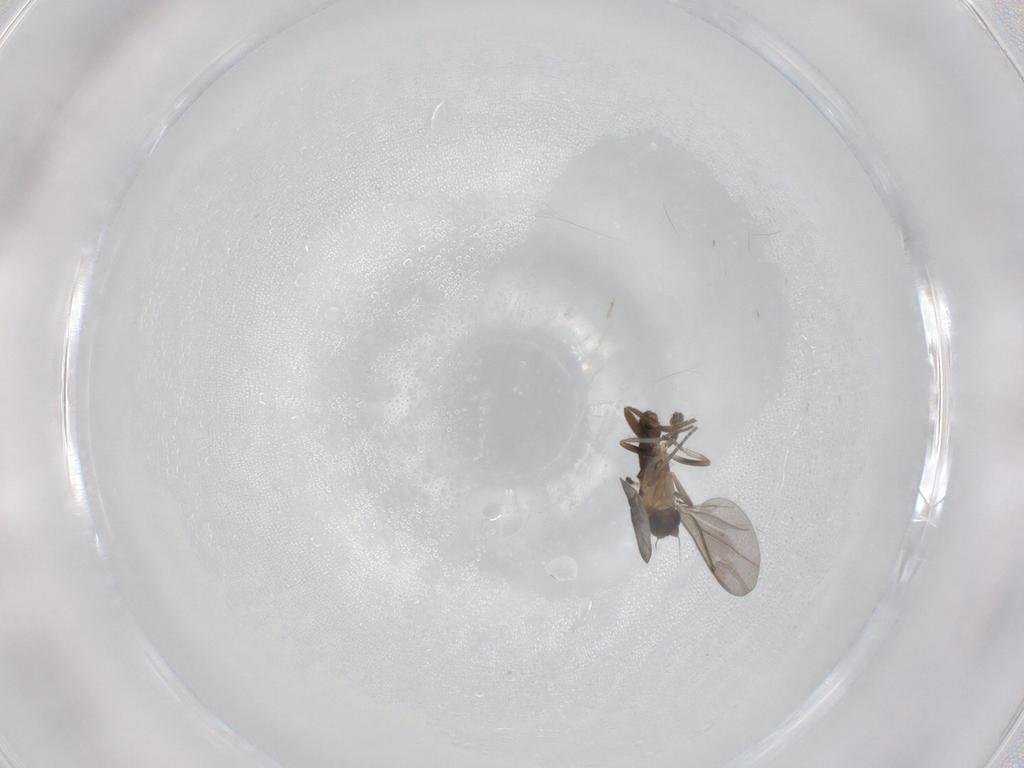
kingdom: Animalia
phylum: Arthropoda
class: Insecta
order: Diptera
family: Phoridae
